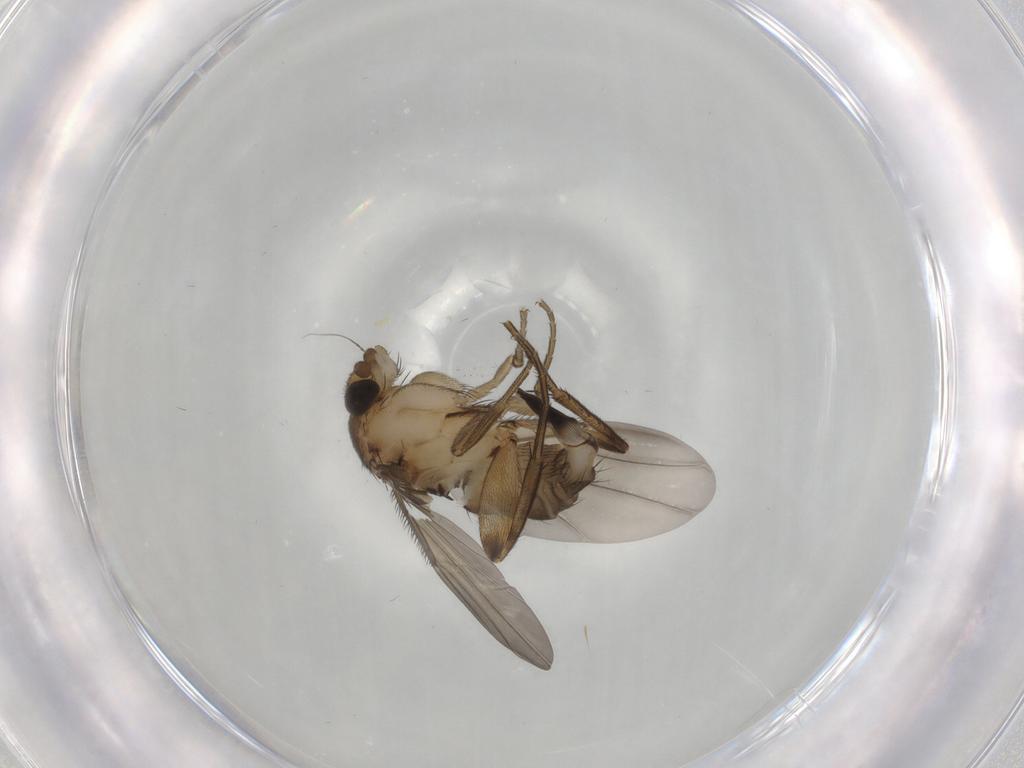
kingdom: Animalia
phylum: Arthropoda
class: Insecta
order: Diptera
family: Phoridae
